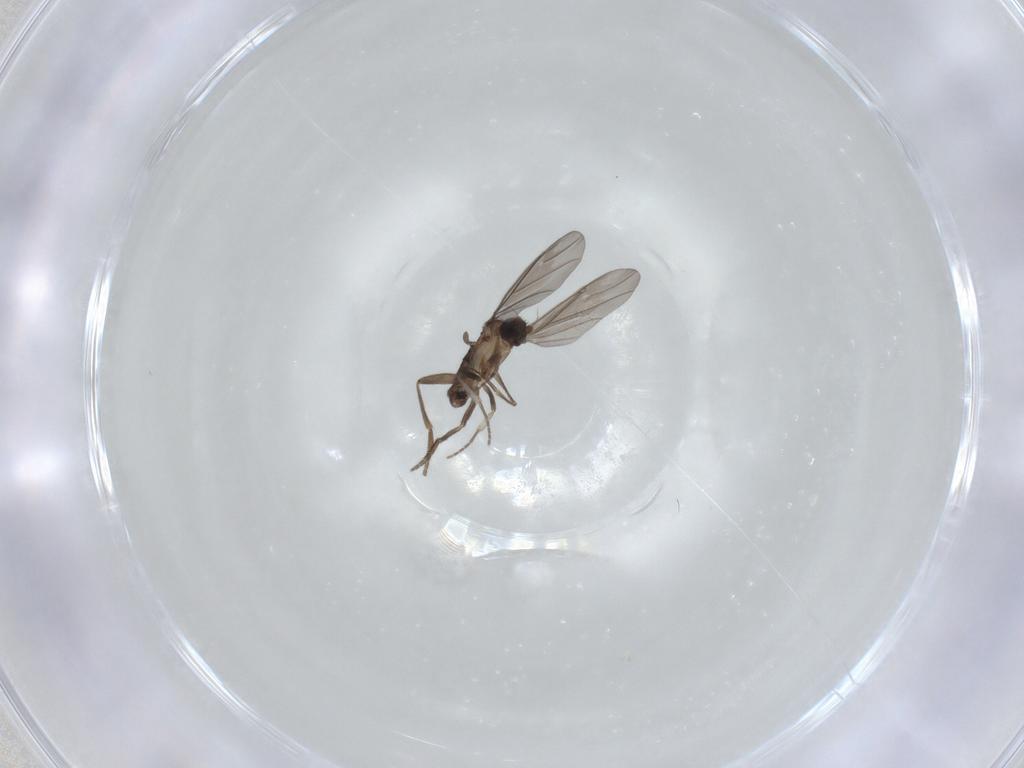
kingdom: Animalia
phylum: Arthropoda
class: Insecta
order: Diptera
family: Phoridae
